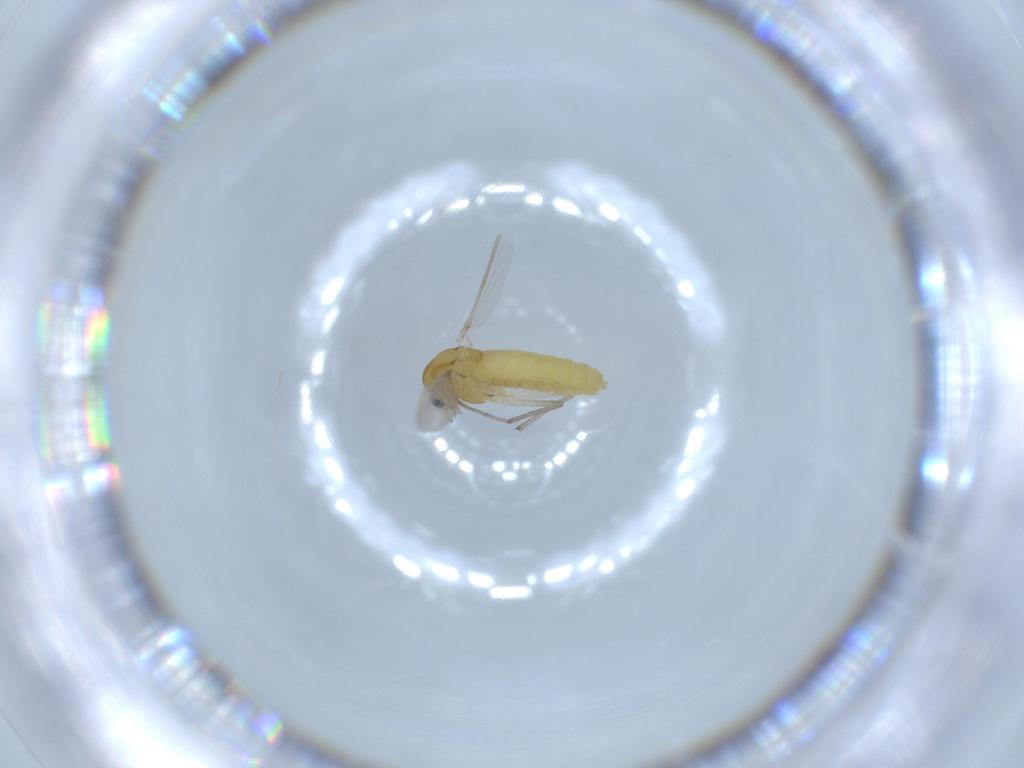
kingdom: Animalia
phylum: Arthropoda
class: Insecta
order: Diptera
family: Chironomidae
